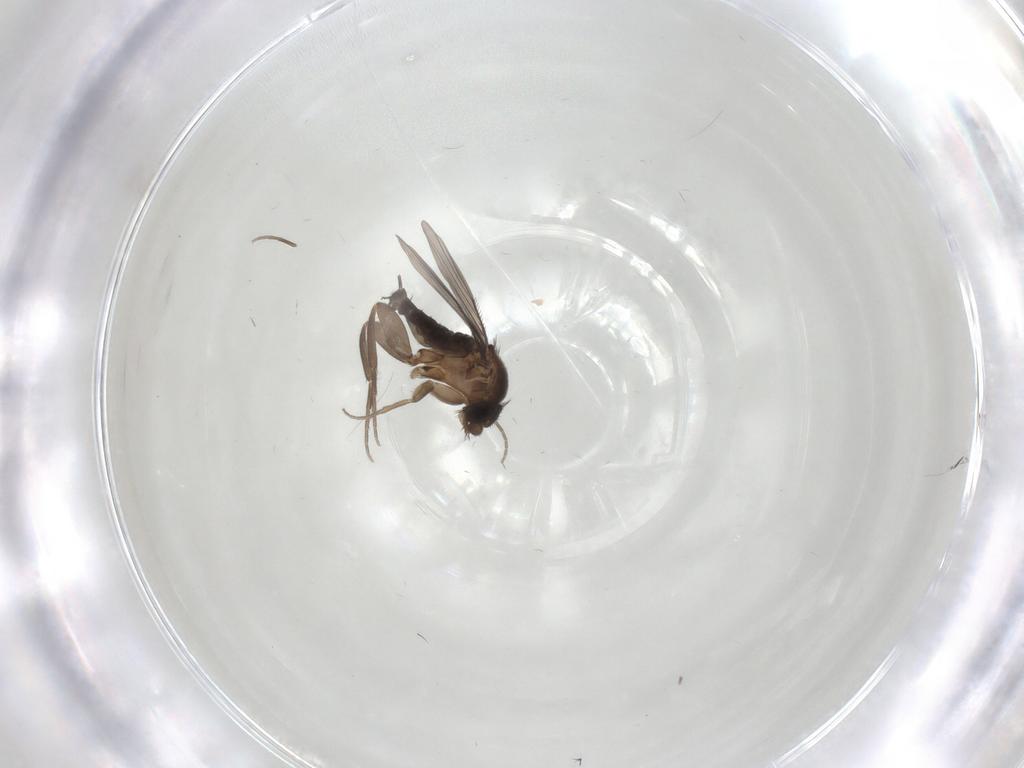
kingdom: Animalia
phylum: Arthropoda
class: Insecta
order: Diptera
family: Phoridae
